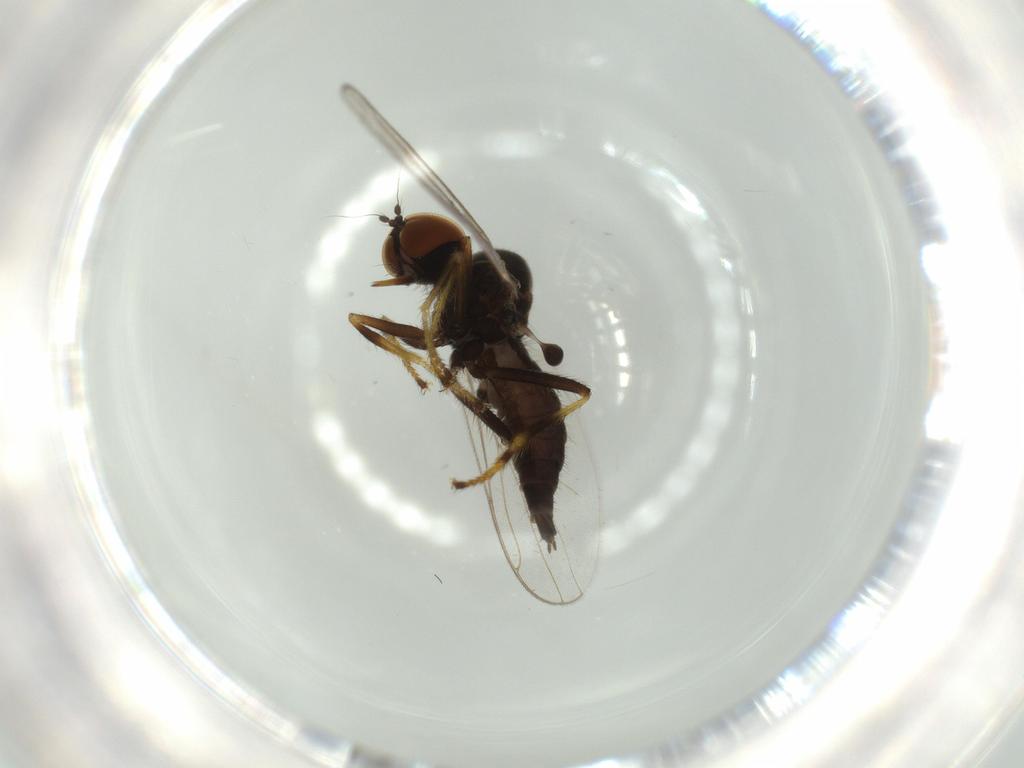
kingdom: Animalia
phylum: Arthropoda
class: Insecta
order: Diptera
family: Hybotidae
